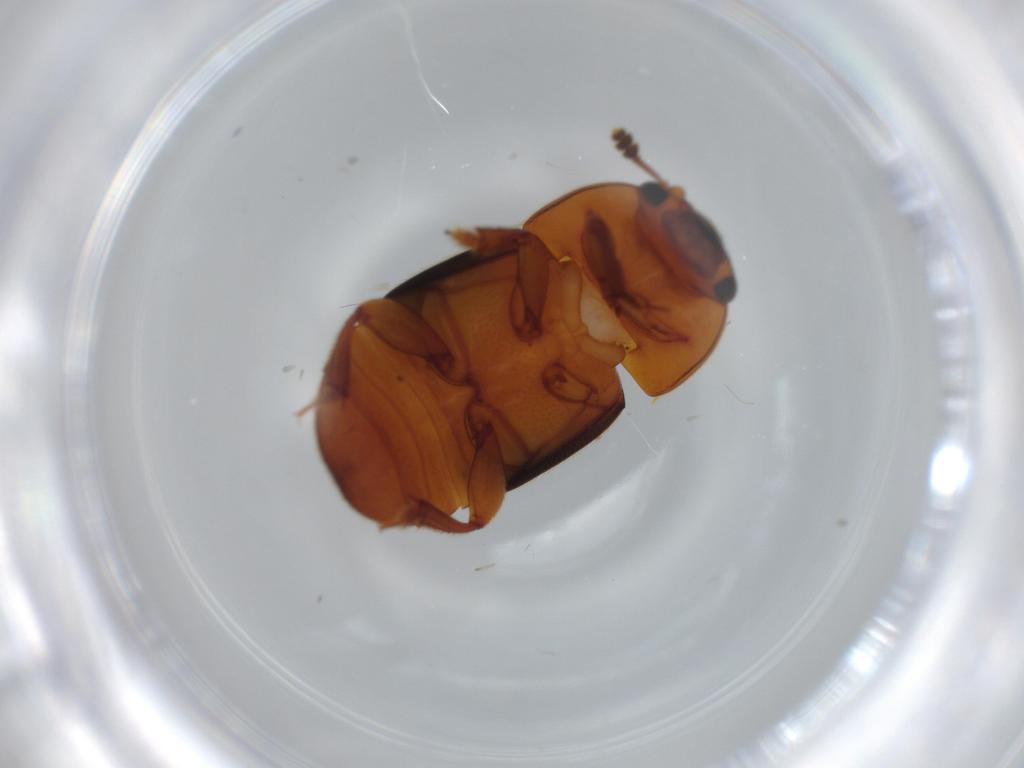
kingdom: Animalia
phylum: Arthropoda
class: Insecta
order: Coleoptera
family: Nitidulidae
